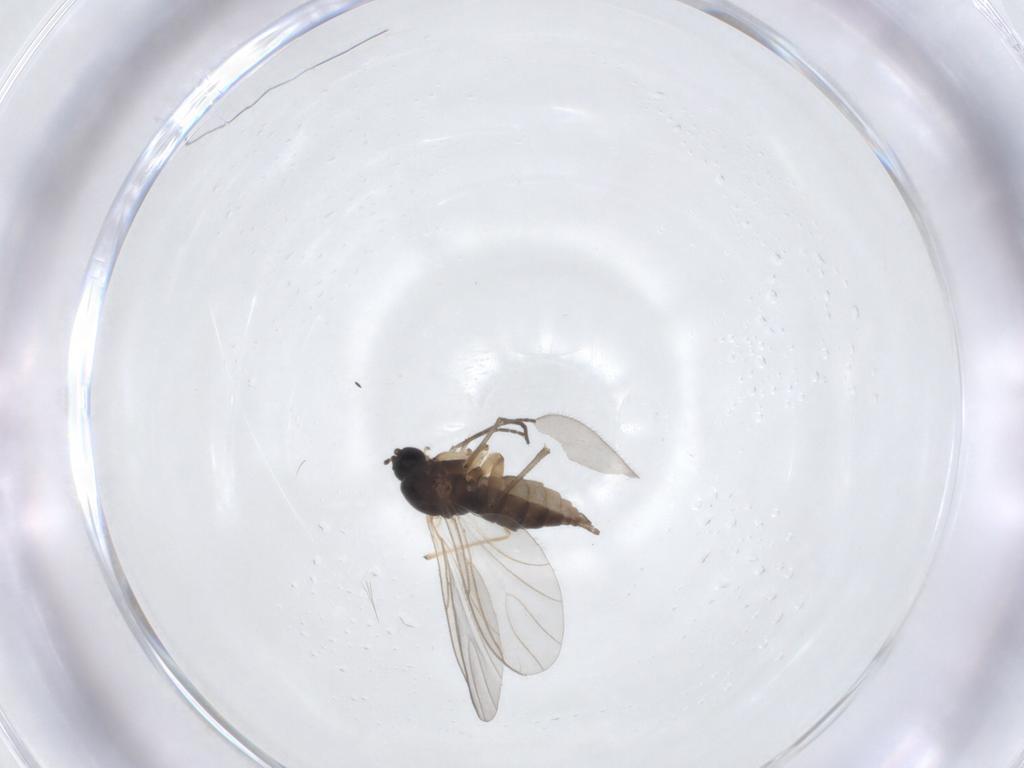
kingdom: Animalia
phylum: Arthropoda
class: Insecta
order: Diptera
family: Sciaridae
